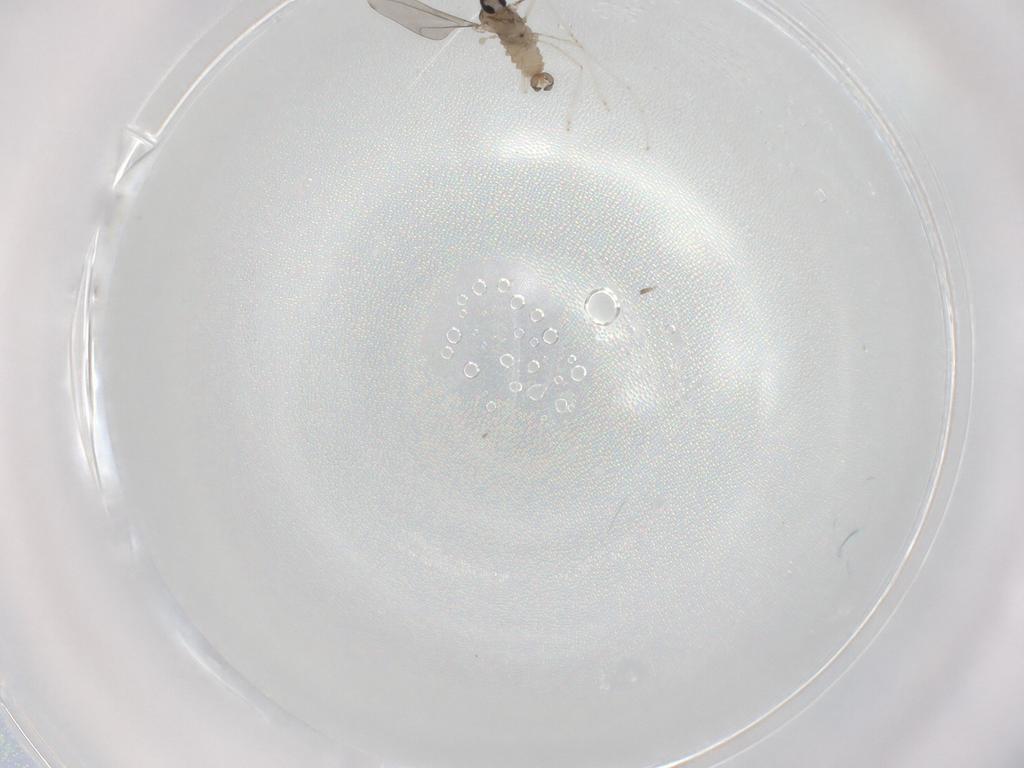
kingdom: Animalia
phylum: Arthropoda
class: Insecta
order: Diptera
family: Cecidomyiidae
